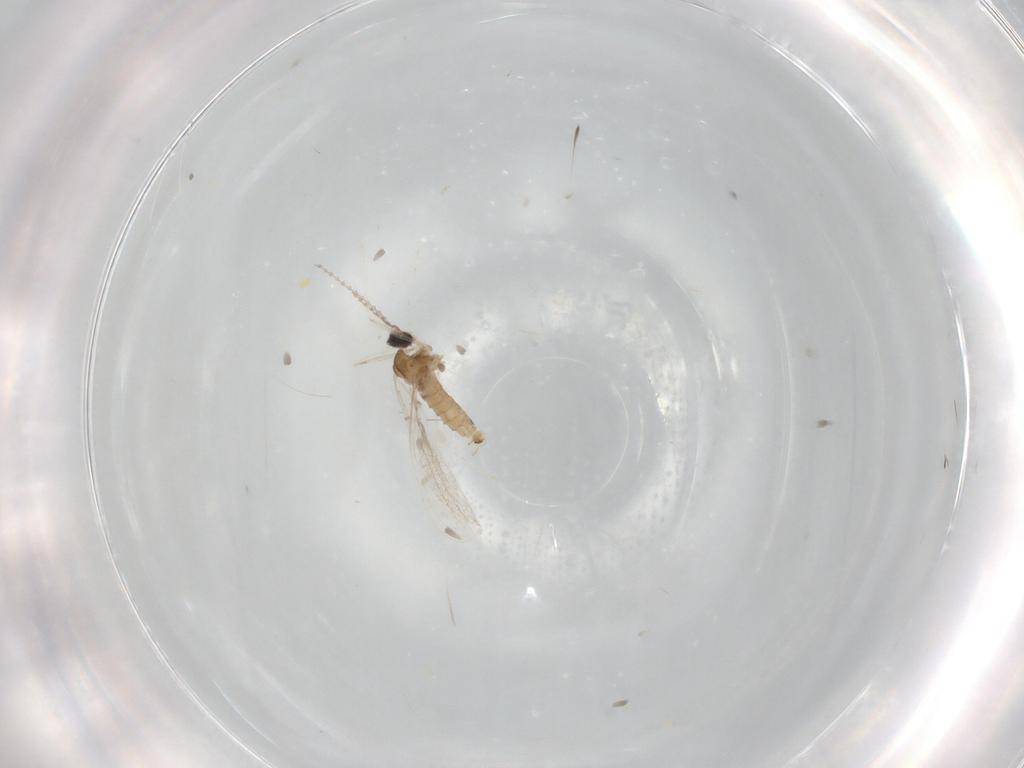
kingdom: Animalia
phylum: Arthropoda
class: Insecta
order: Diptera
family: Cecidomyiidae
